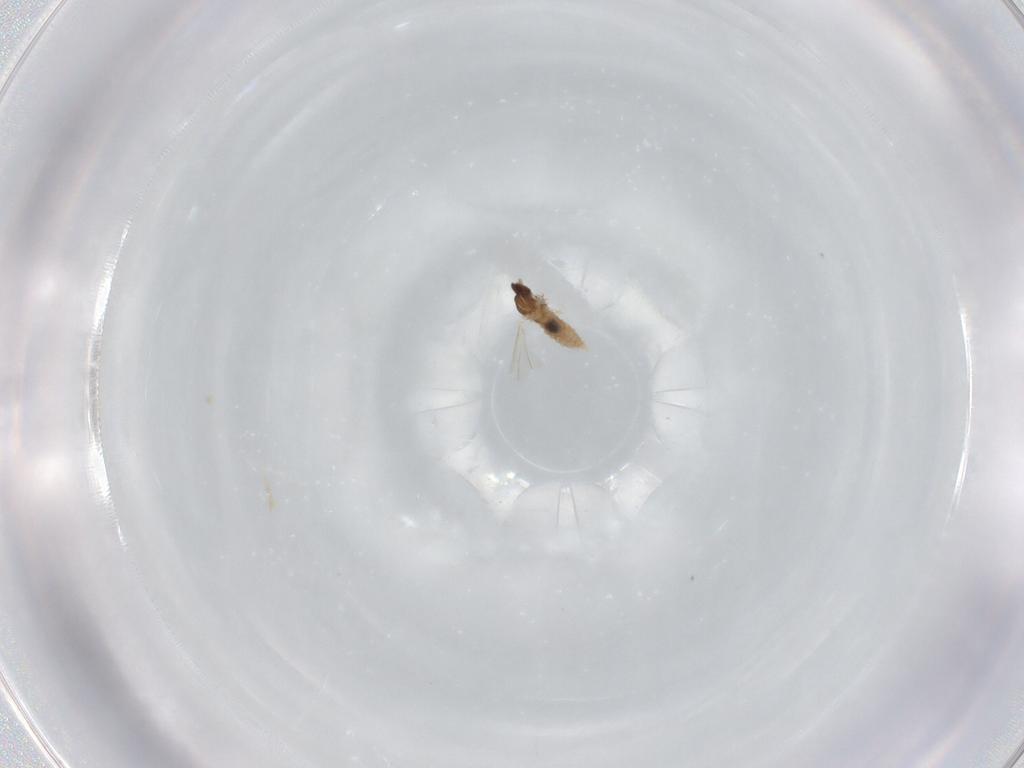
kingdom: Animalia
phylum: Arthropoda
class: Insecta
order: Diptera
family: Cecidomyiidae
